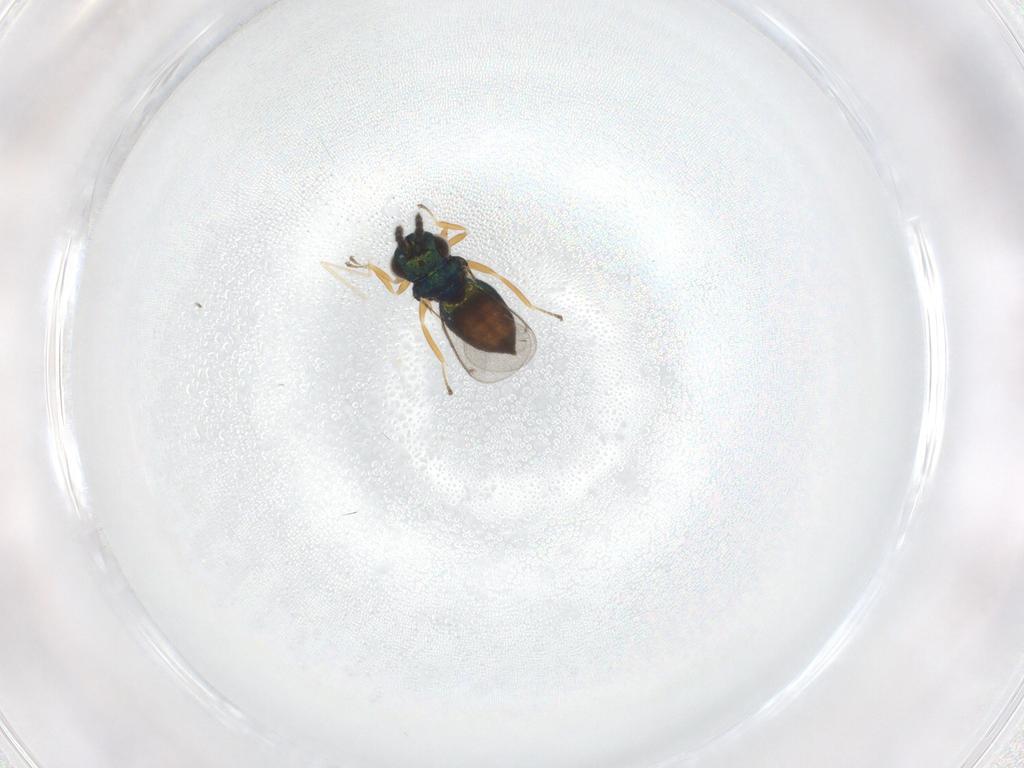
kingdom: Animalia
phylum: Arthropoda
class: Insecta
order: Hymenoptera
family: Eulophidae
